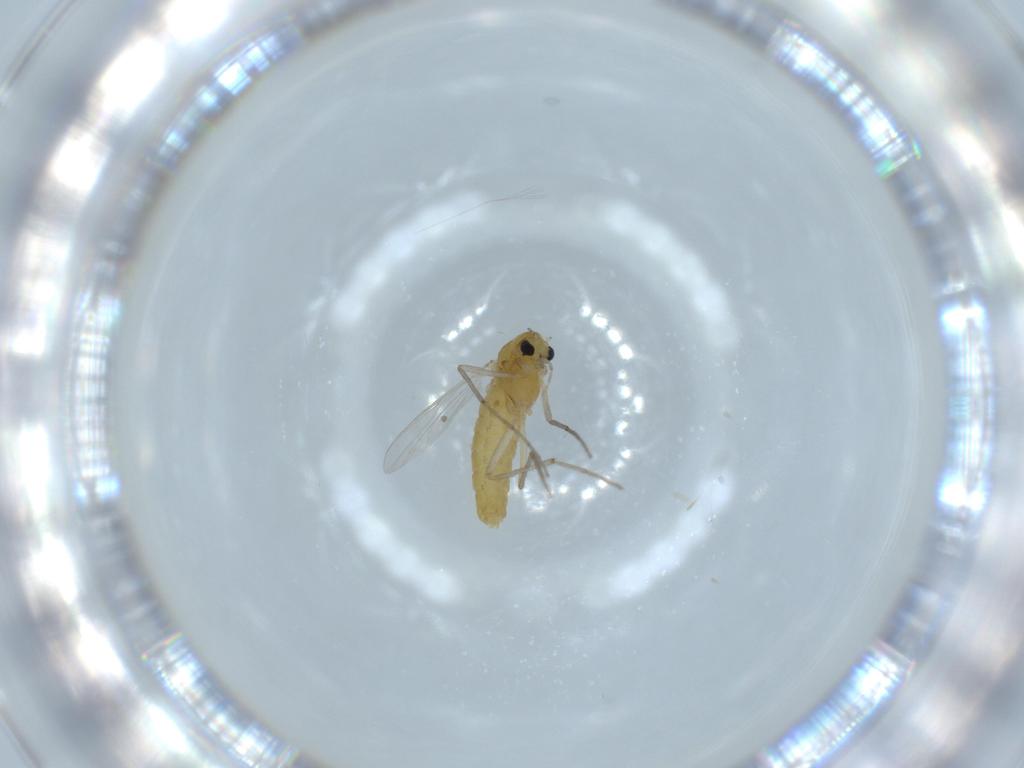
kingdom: Animalia
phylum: Arthropoda
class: Insecta
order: Diptera
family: Chironomidae
